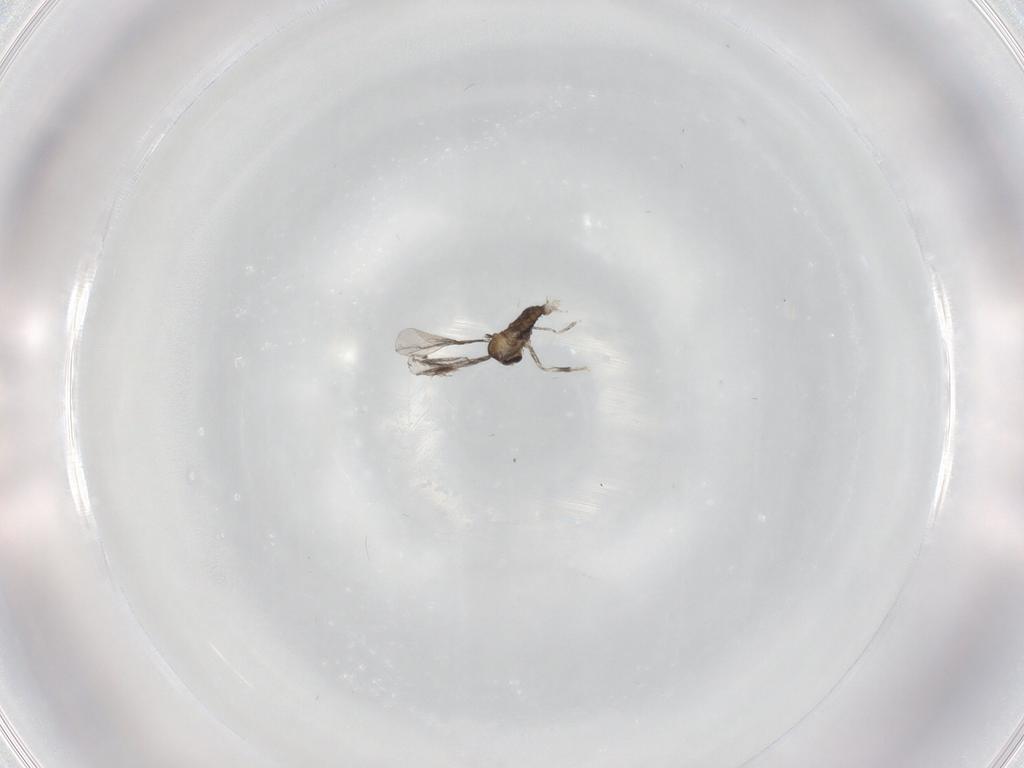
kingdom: Animalia
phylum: Arthropoda
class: Insecta
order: Diptera
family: Cecidomyiidae
